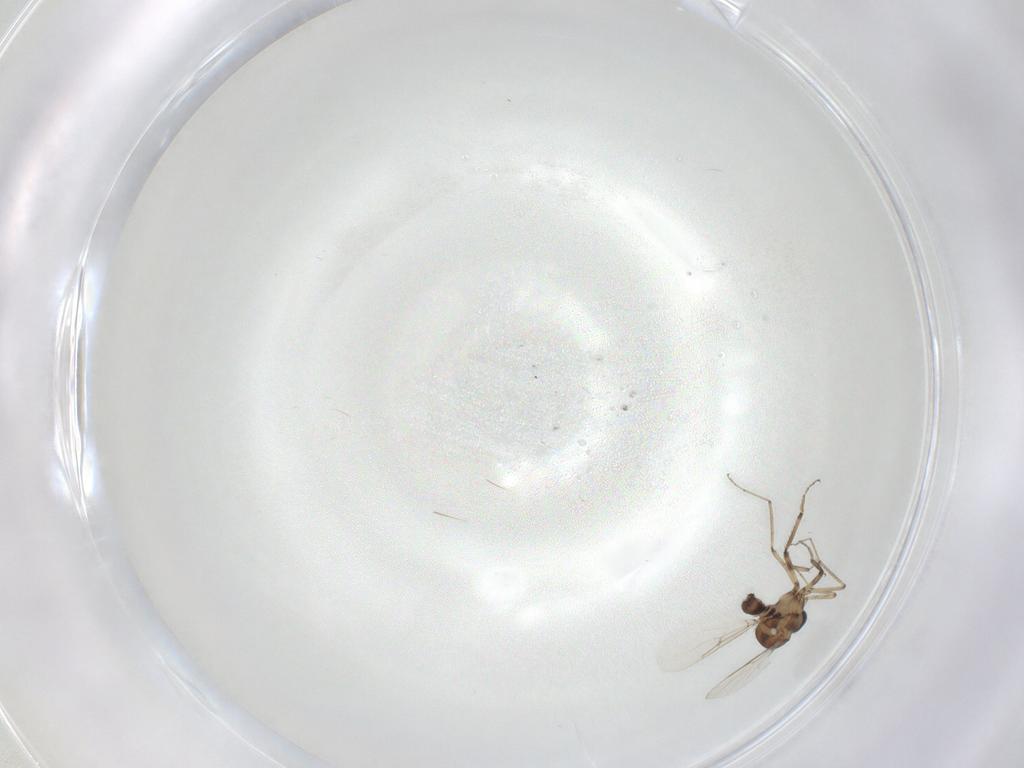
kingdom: Animalia
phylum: Arthropoda
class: Insecta
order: Diptera
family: Ceratopogonidae
